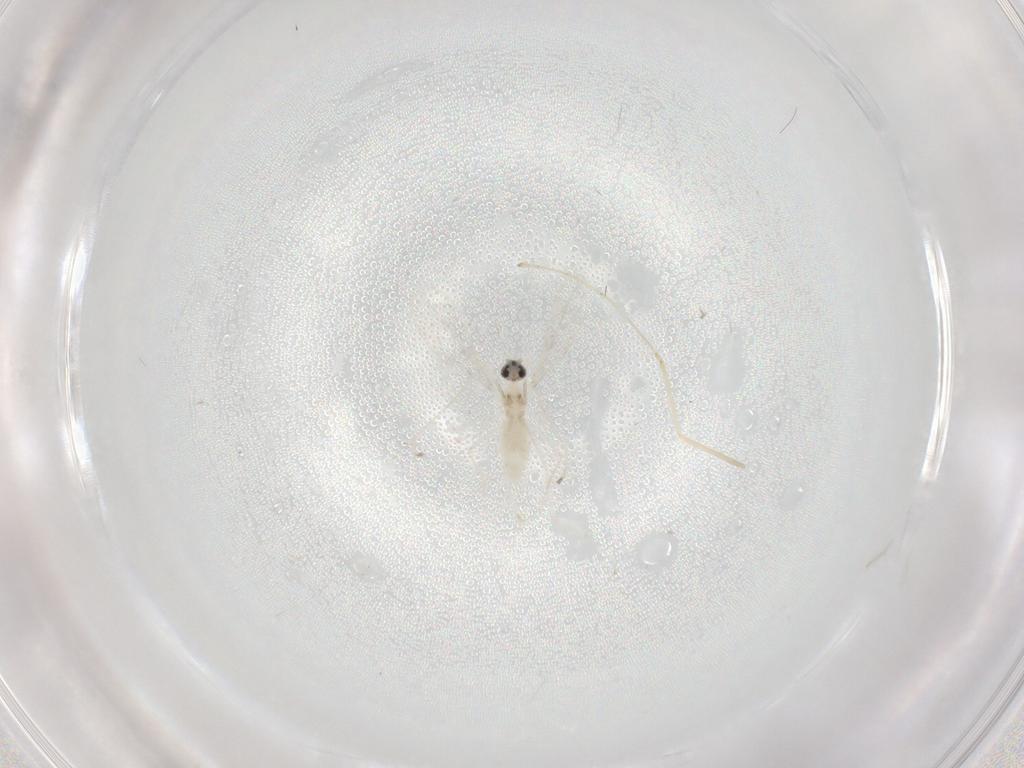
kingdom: Animalia
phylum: Arthropoda
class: Insecta
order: Diptera
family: Cecidomyiidae
